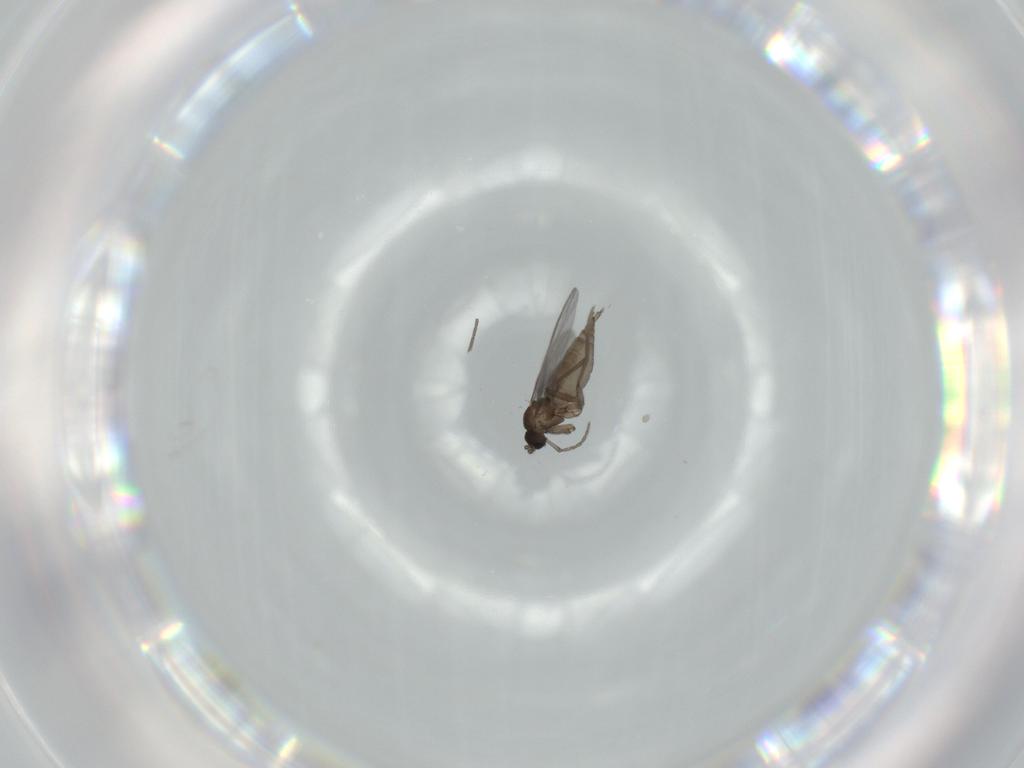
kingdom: Animalia
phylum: Arthropoda
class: Insecta
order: Diptera
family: Sciaridae
